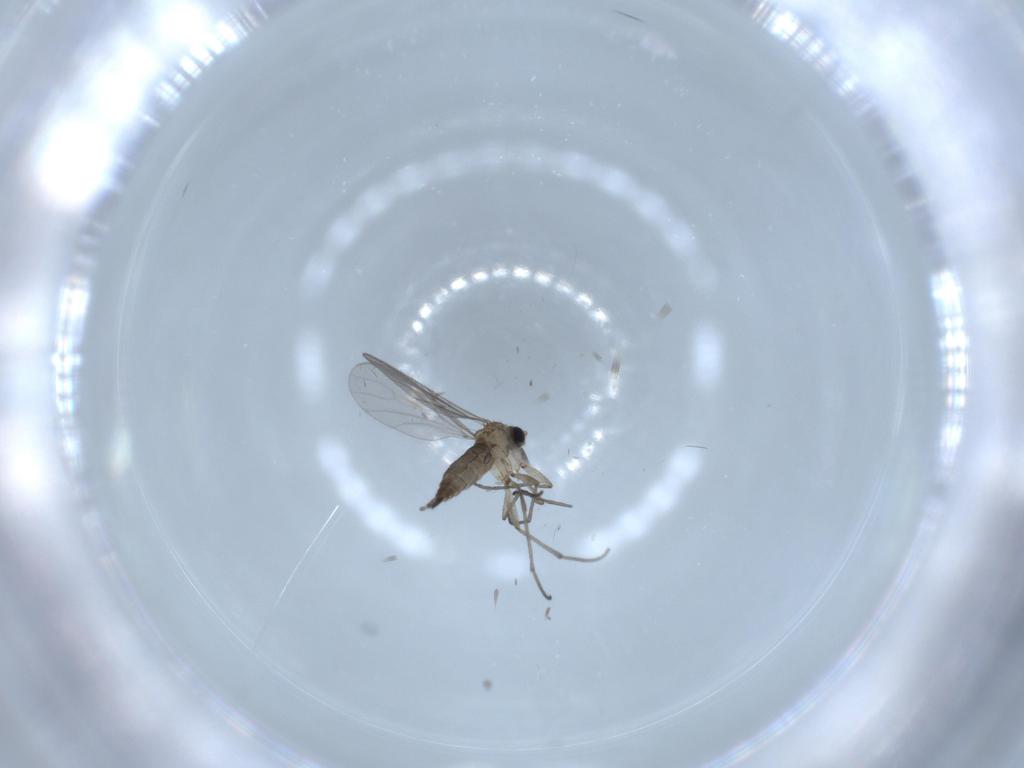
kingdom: Animalia
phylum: Arthropoda
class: Insecta
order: Diptera
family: Sciaridae
